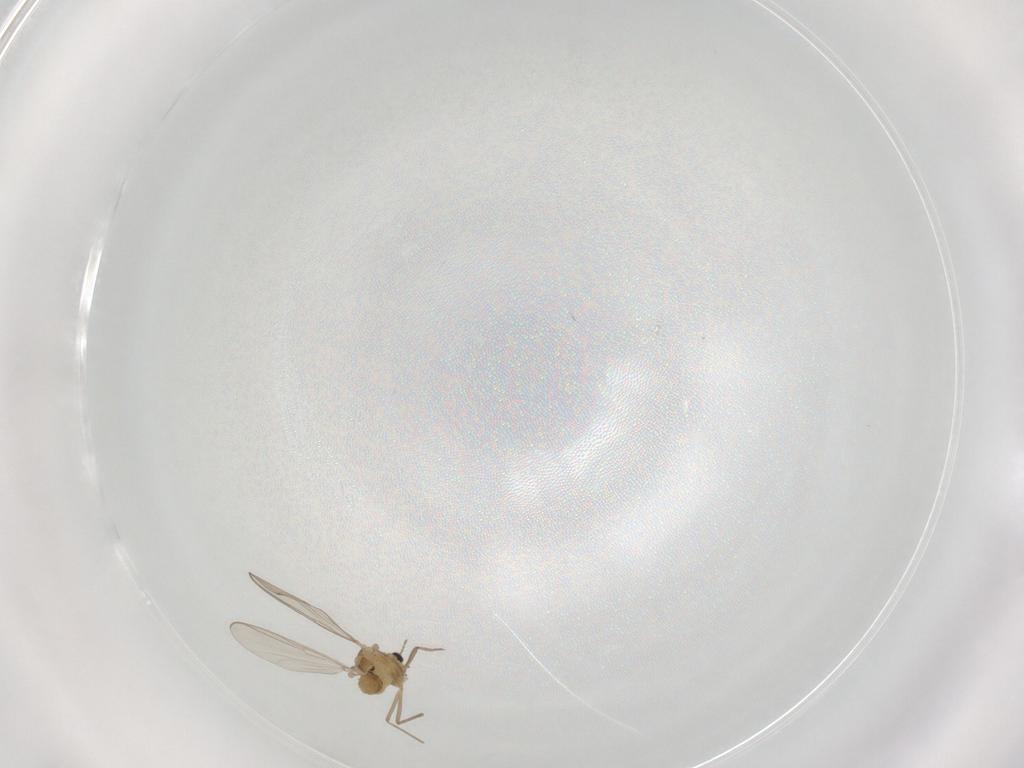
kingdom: Animalia
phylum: Arthropoda
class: Insecta
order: Diptera
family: Chironomidae
